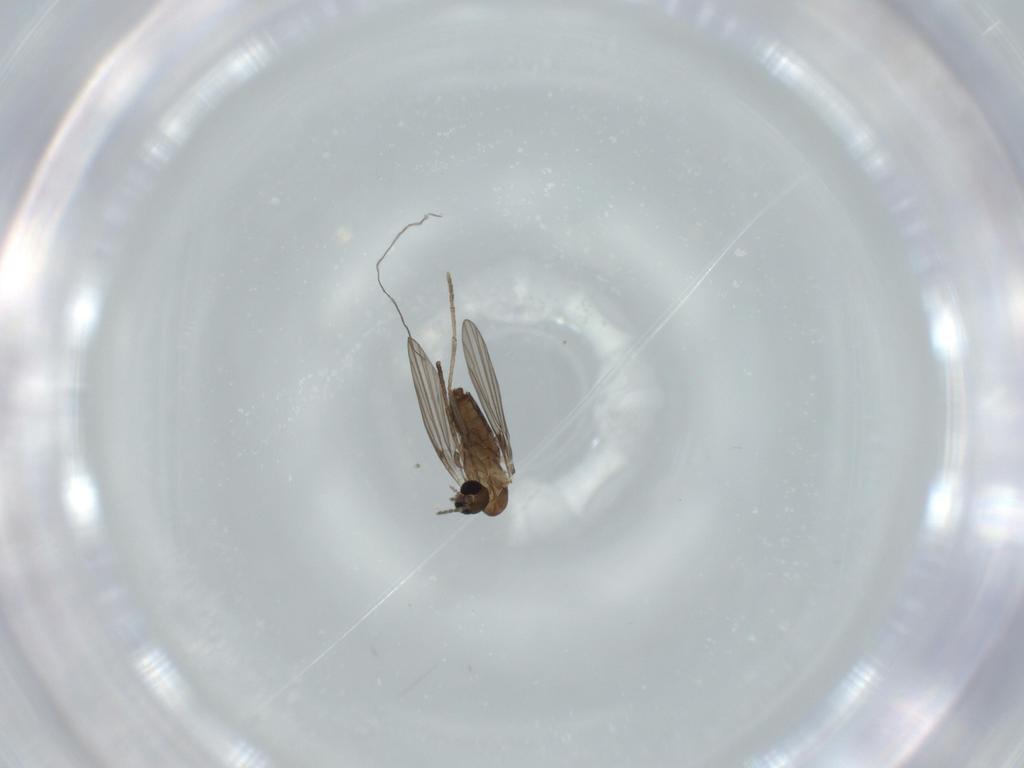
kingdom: Animalia
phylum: Arthropoda
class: Insecta
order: Diptera
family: Psychodidae
